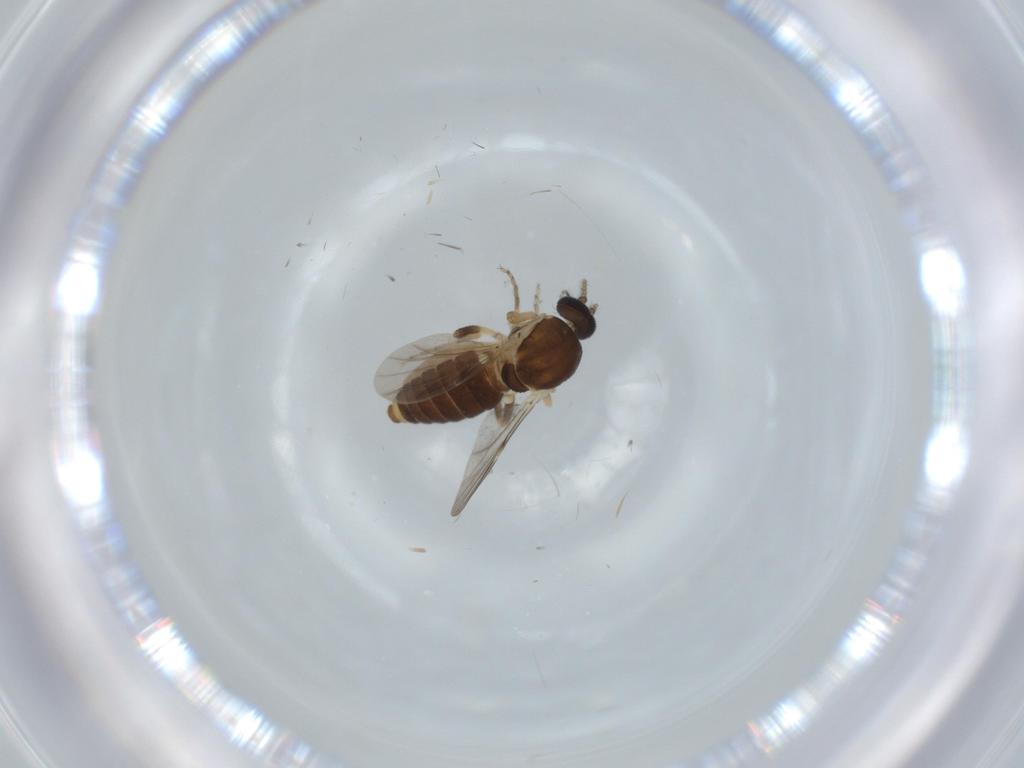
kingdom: Animalia
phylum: Arthropoda
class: Insecta
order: Diptera
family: Ceratopogonidae
